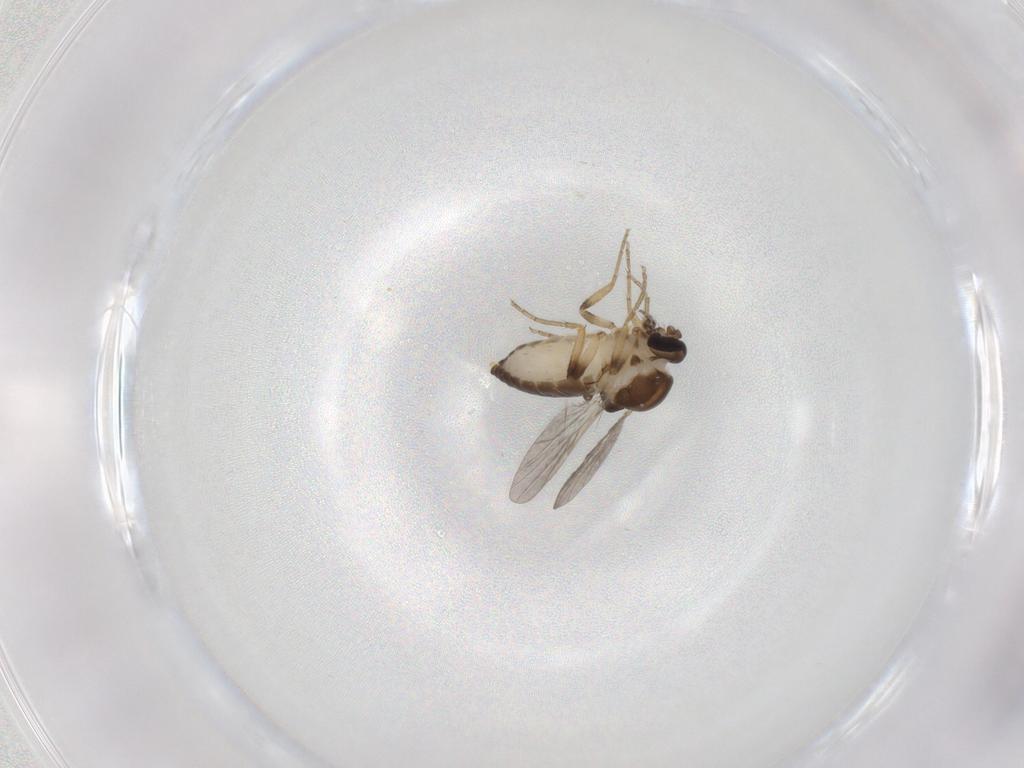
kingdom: Animalia
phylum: Arthropoda
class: Insecta
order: Diptera
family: Ceratopogonidae
